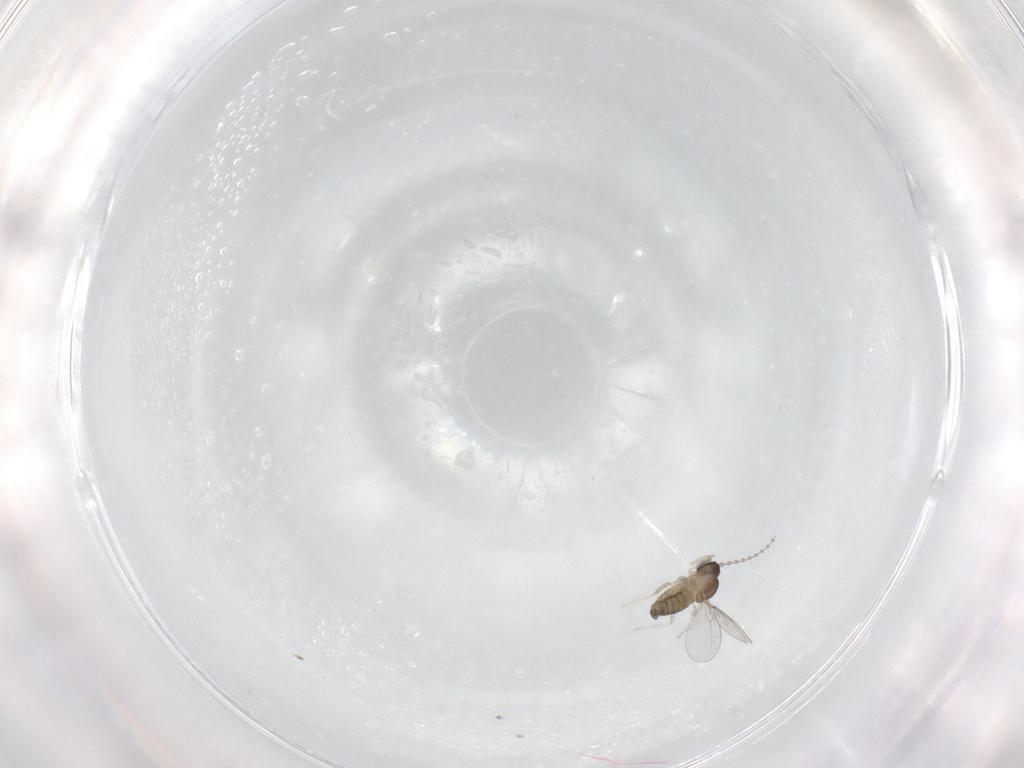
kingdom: Animalia
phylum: Arthropoda
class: Insecta
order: Diptera
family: Cecidomyiidae
